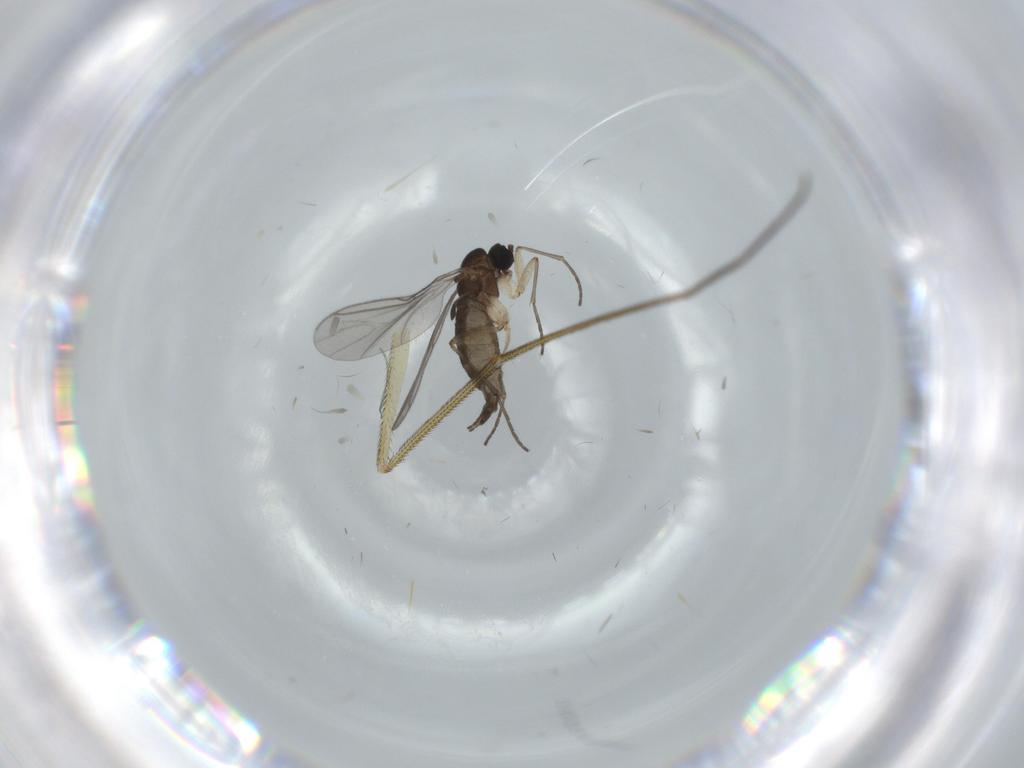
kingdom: Animalia
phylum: Arthropoda
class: Insecta
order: Diptera
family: Sciaridae
